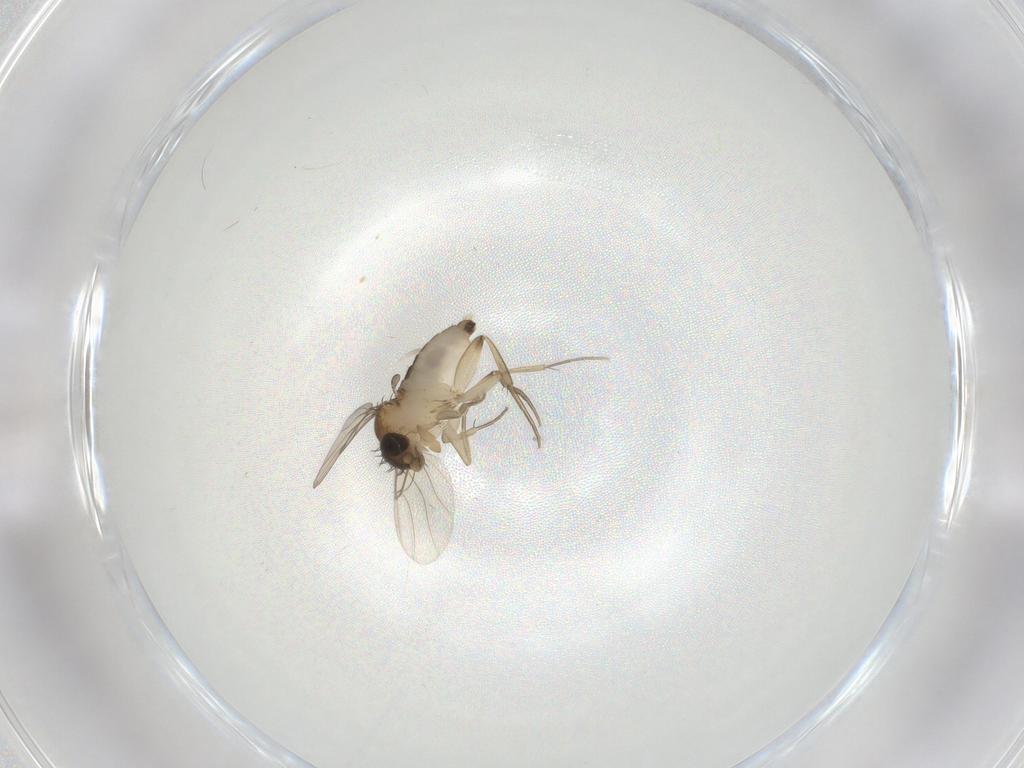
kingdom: Animalia
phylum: Arthropoda
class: Insecta
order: Diptera
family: Phoridae
